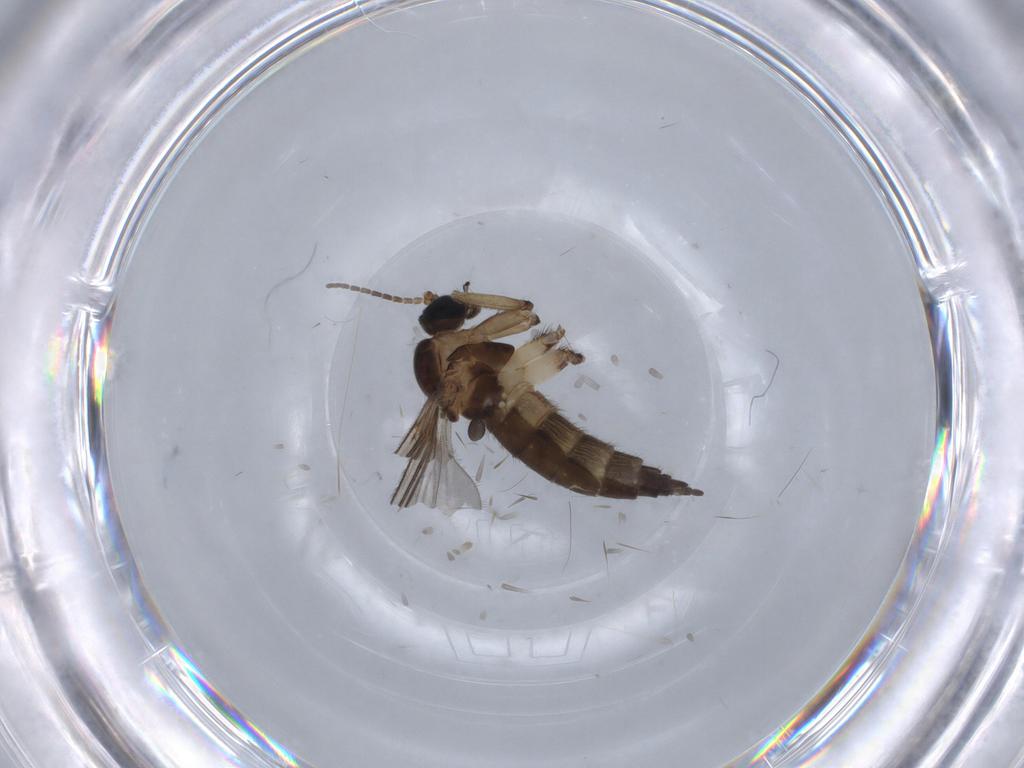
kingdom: Animalia
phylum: Arthropoda
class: Insecta
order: Diptera
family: Sciaridae
